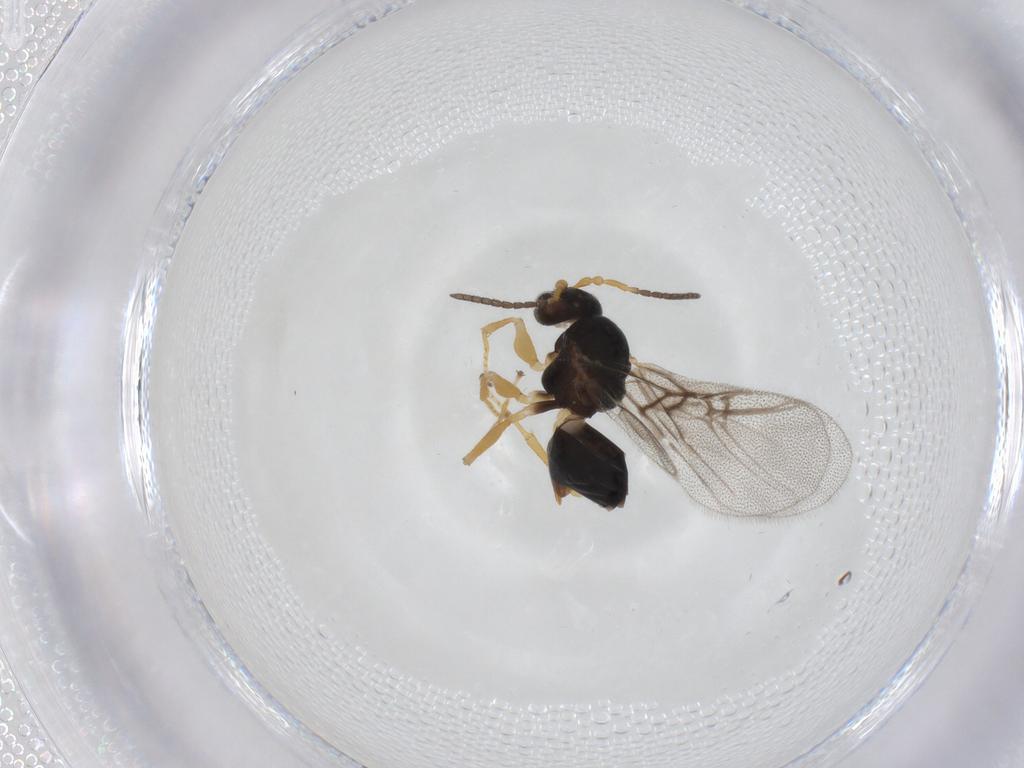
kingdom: Animalia
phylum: Arthropoda
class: Insecta
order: Hymenoptera
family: Cynipidae
